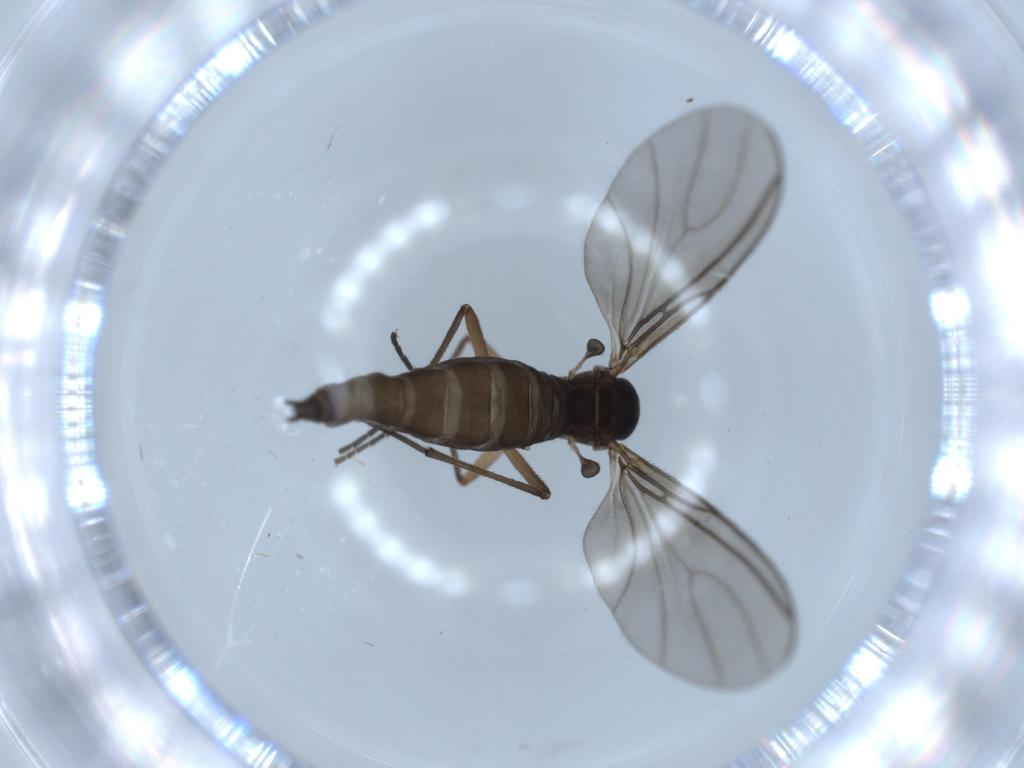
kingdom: Animalia
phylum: Arthropoda
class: Insecta
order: Diptera
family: Sciaridae
